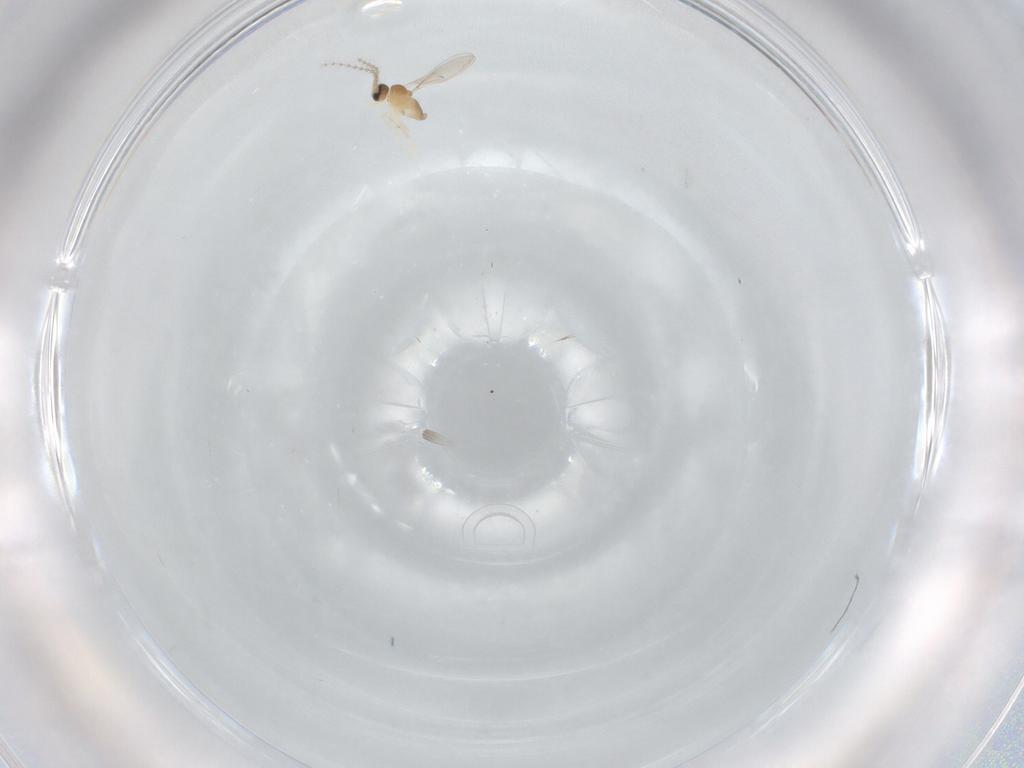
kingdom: Animalia
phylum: Arthropoda
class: Insecta
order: Diptera
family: Cecidomyiidae
